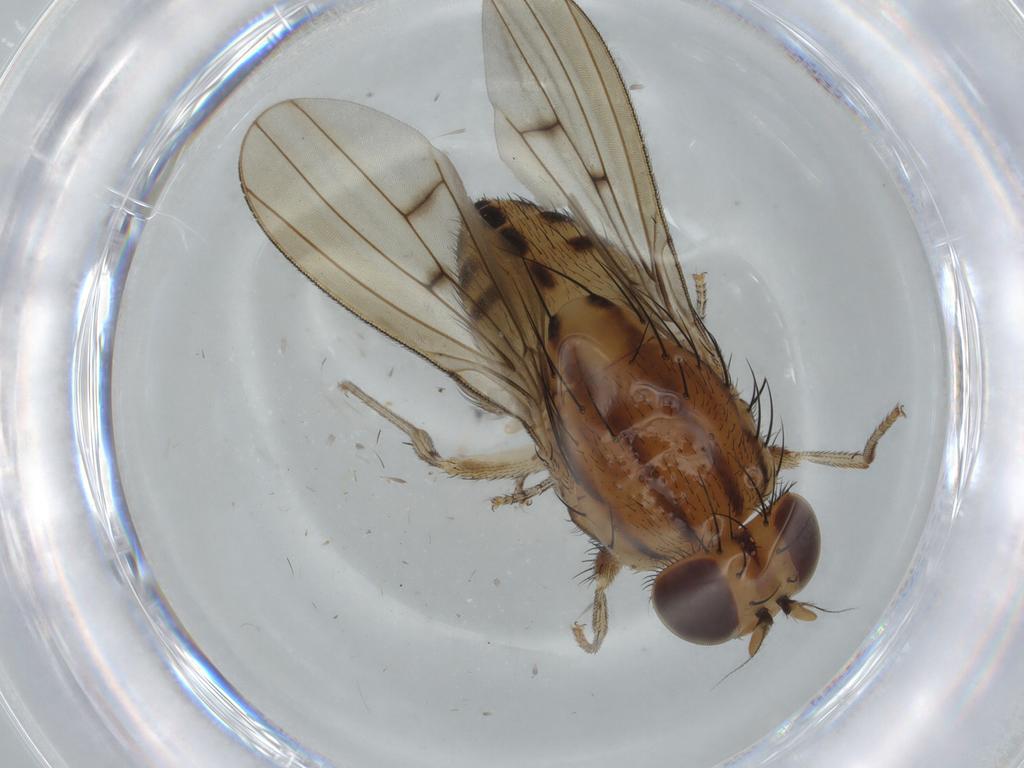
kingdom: Animalia
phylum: Arthropoda
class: Insecta
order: Diptera
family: Lauxaniidae
